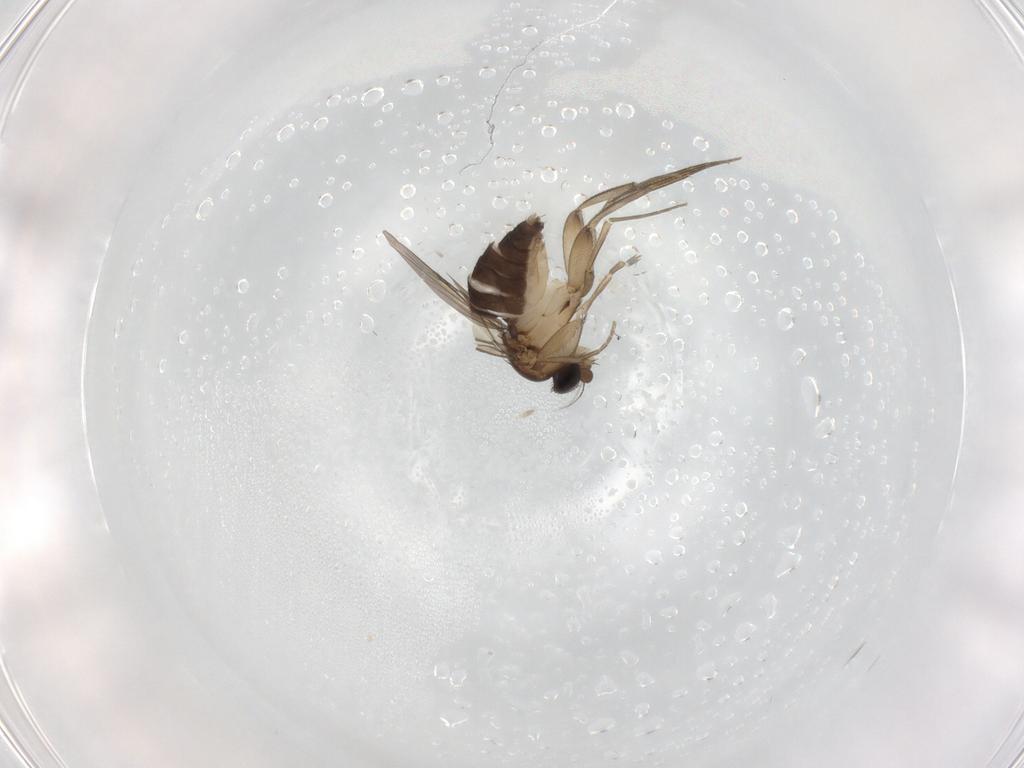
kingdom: Animalia
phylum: Arthropoda
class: Insecta
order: Diptera
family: Phoridae
